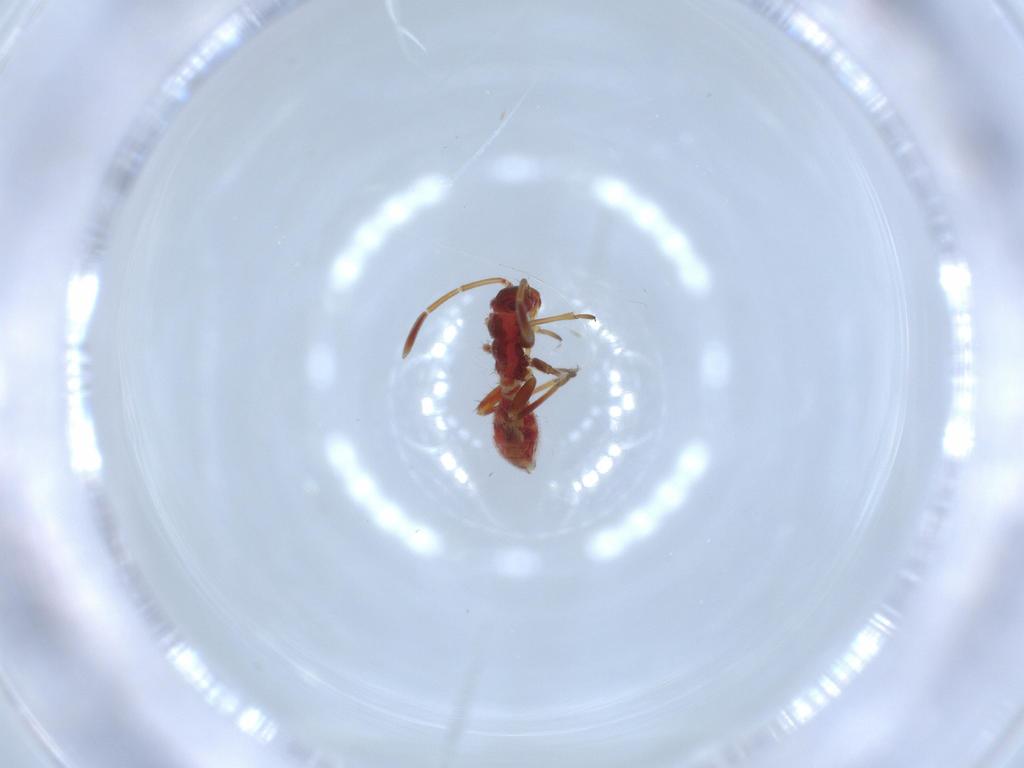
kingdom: Animalia
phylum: Arthropoda
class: Insecta
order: Hemiptera
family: Miridae
